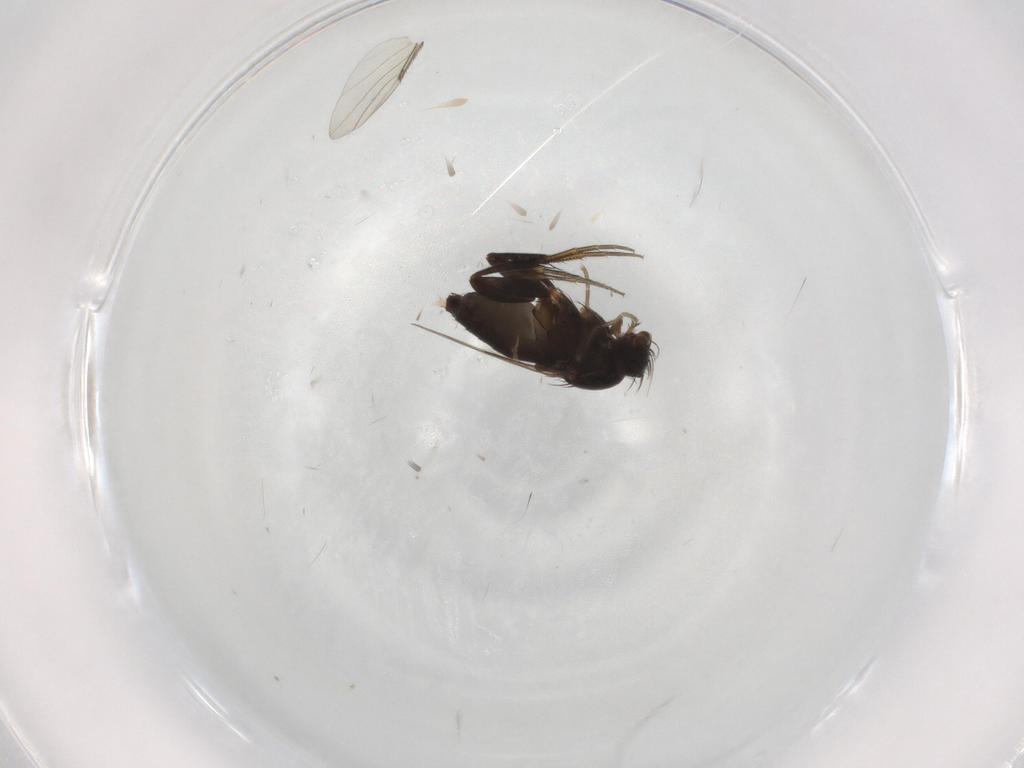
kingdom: Animalia
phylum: Arthropoda
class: Insecta
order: Diptera
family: Phoridae
